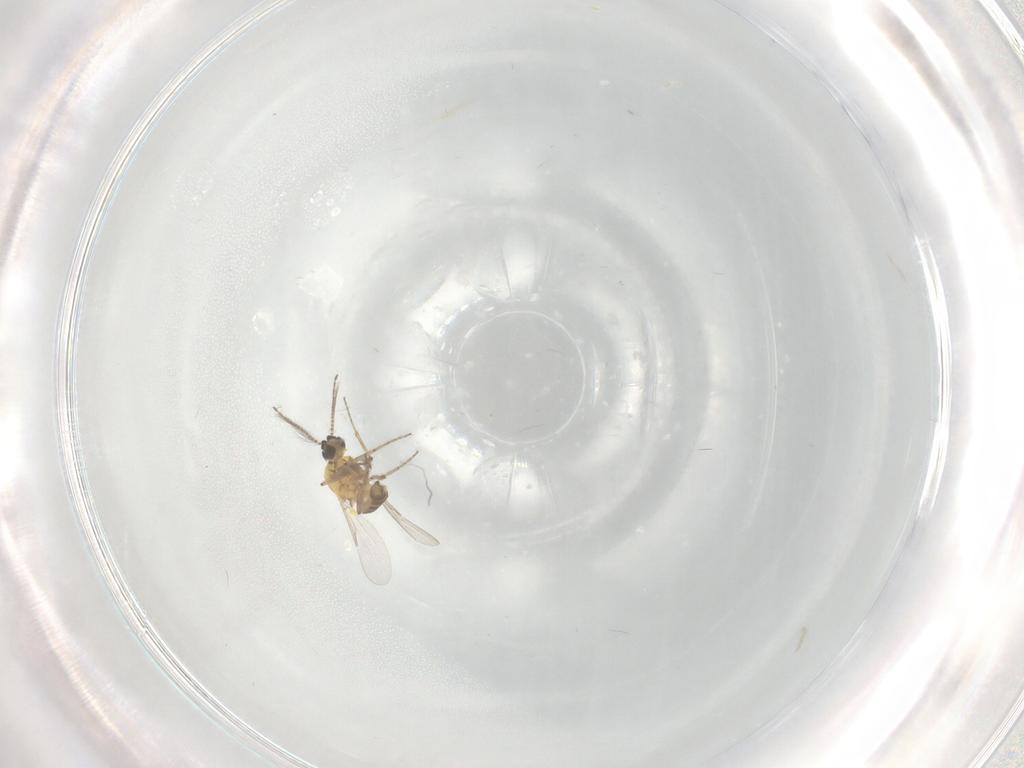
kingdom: Animalia
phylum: Arthropoda
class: Insecta
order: Diptera
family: Ceratopogonidae
